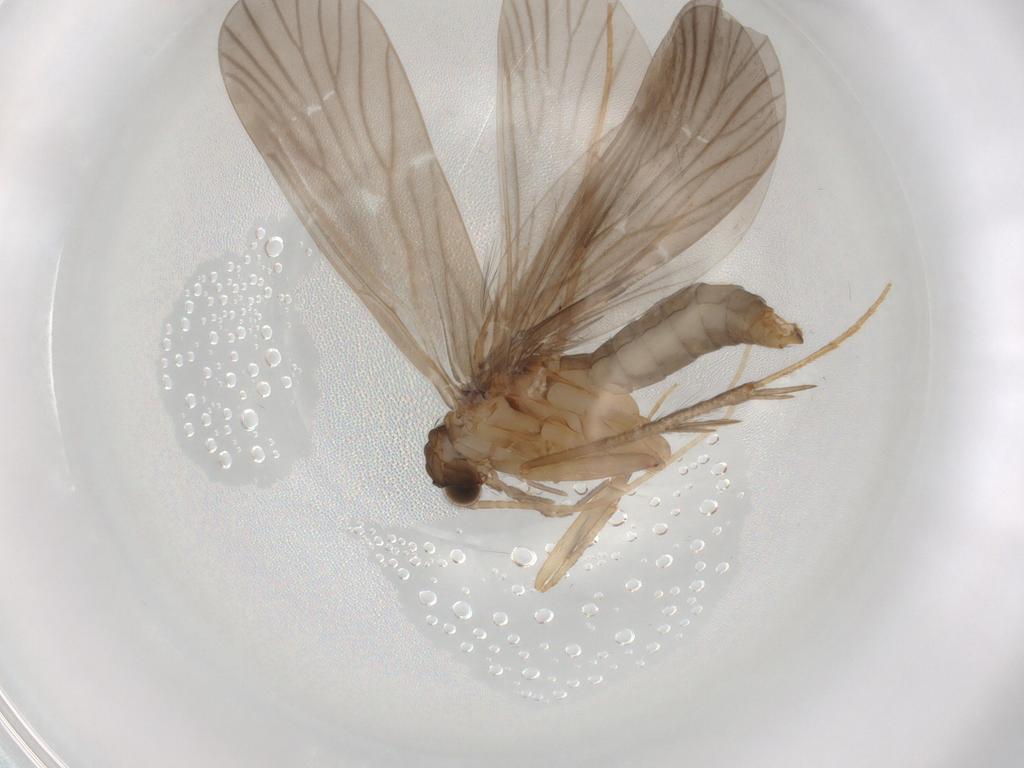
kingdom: Animalia
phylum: Arthropoda
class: Insecta
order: Trichoptera
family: Philopotamidae
